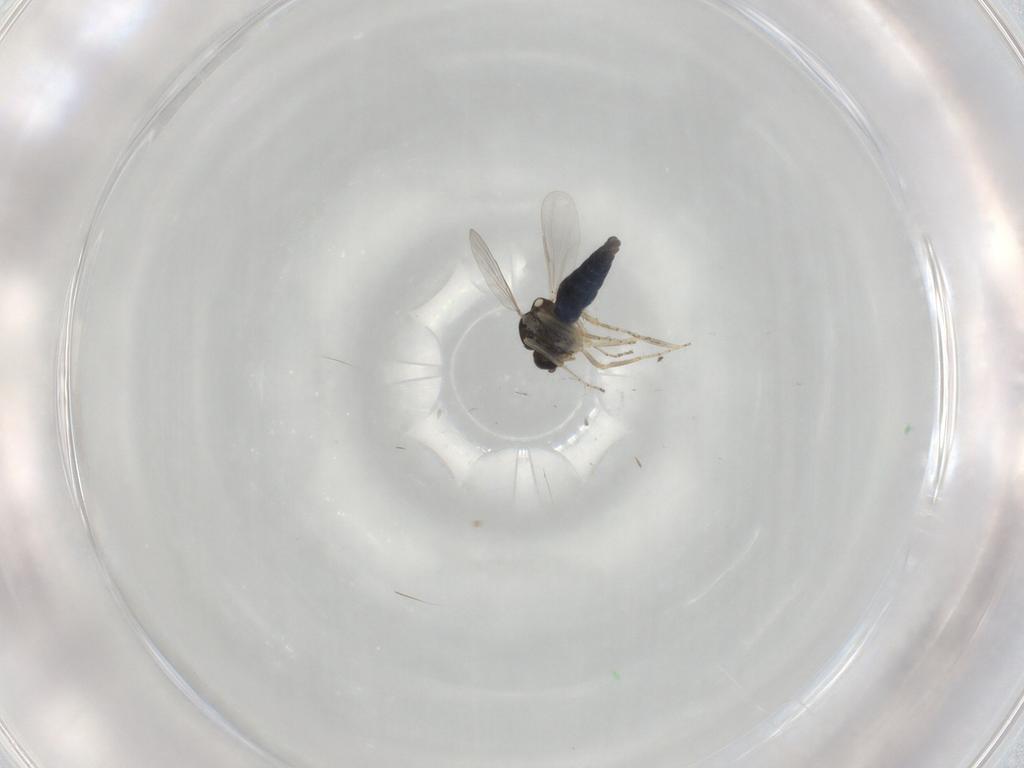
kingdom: Animalia
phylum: Arthropoda
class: Insecta
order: Diptera
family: Ceratopogonidae
